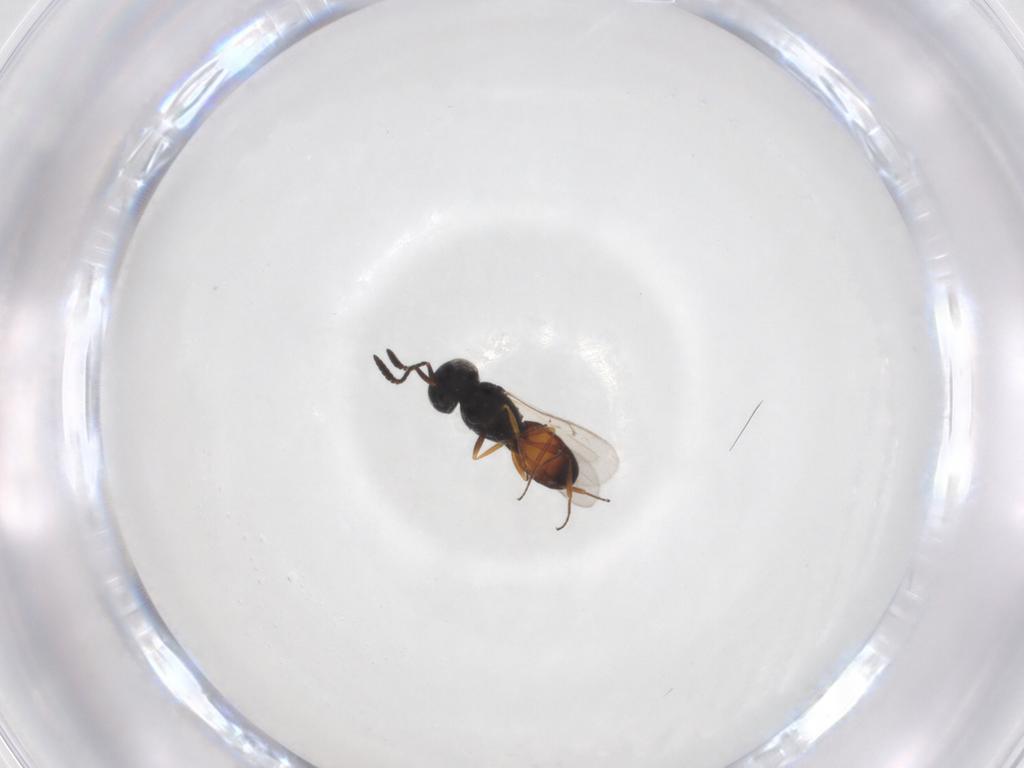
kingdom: Animalia
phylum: Arthropoda
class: Insecta
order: Hymenoptera
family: Scelionidae
